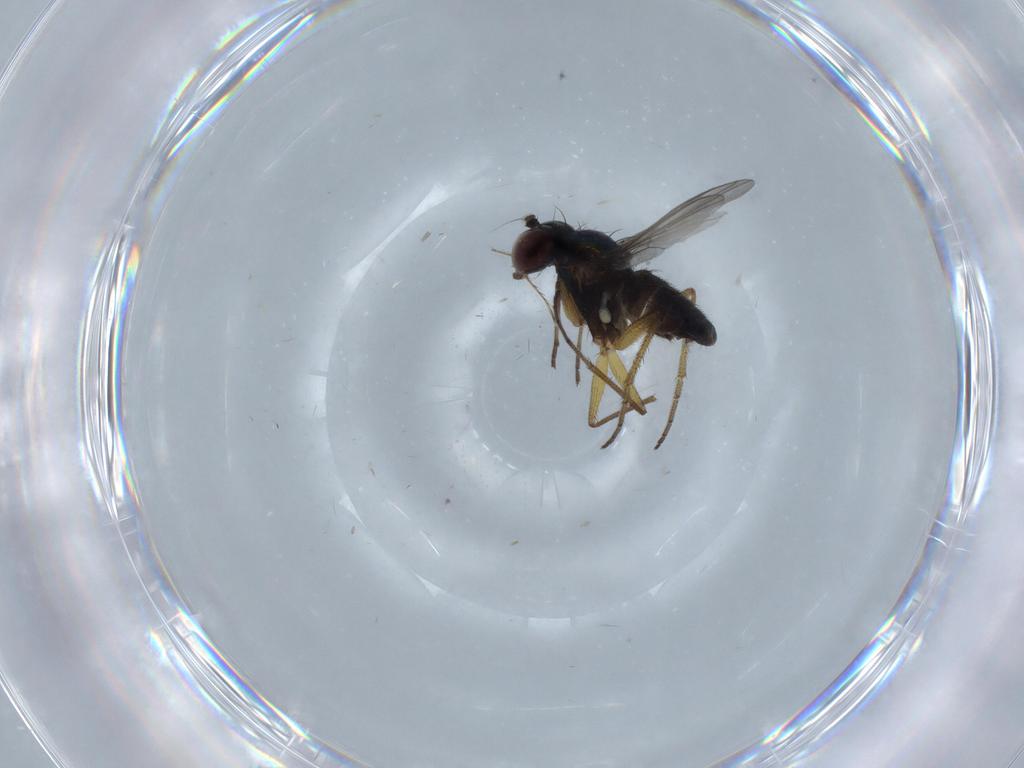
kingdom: Animalia
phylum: Arthropoda
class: Insecta
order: Diptera
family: Dolichopodidae
